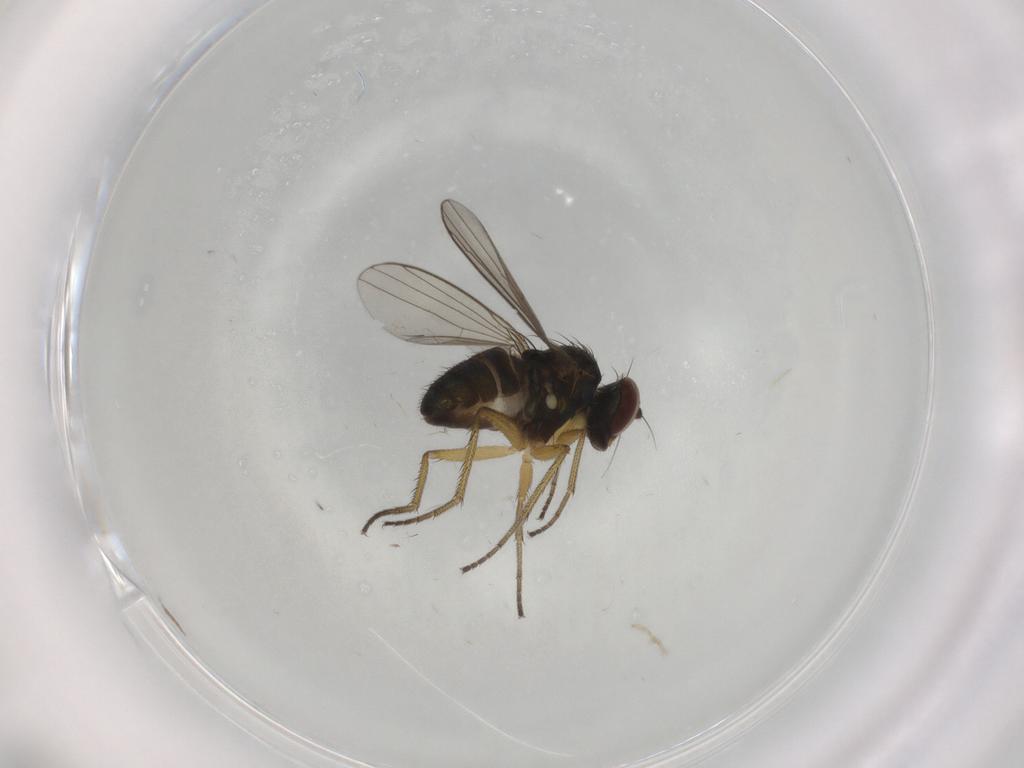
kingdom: Animalia
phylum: Arthropoda
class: Insecta
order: Diptera
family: Dolichopodidae
